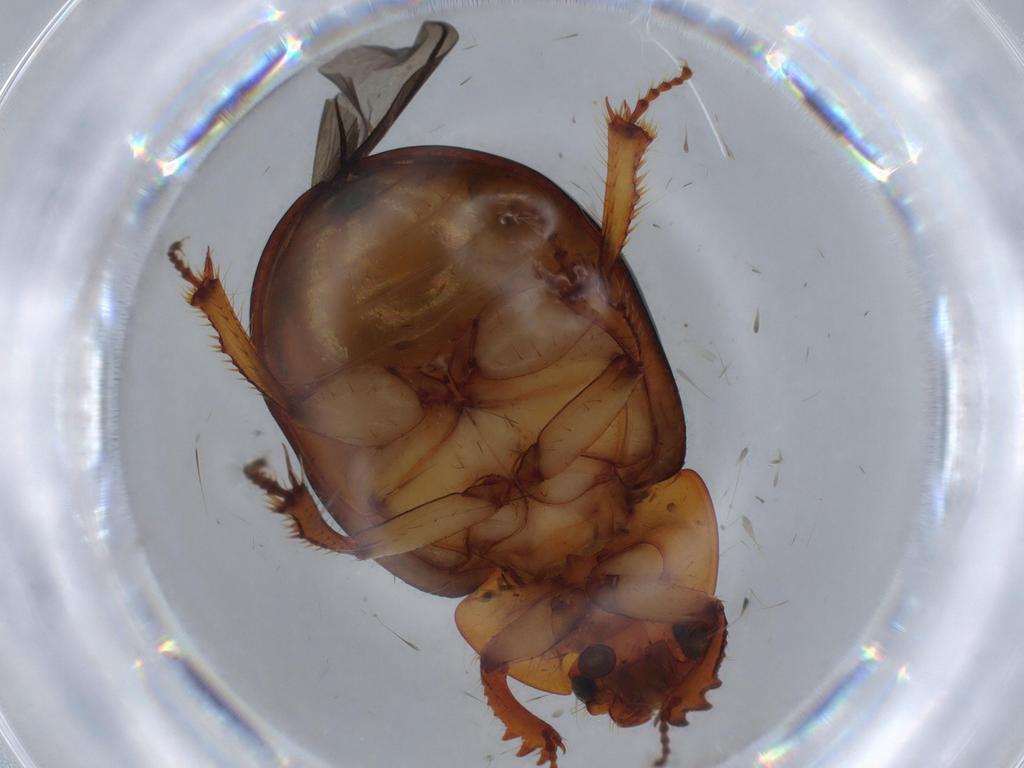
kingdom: Animalia
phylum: Arthropoda
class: Insecta
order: Coleoptera
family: Hybosoridae
